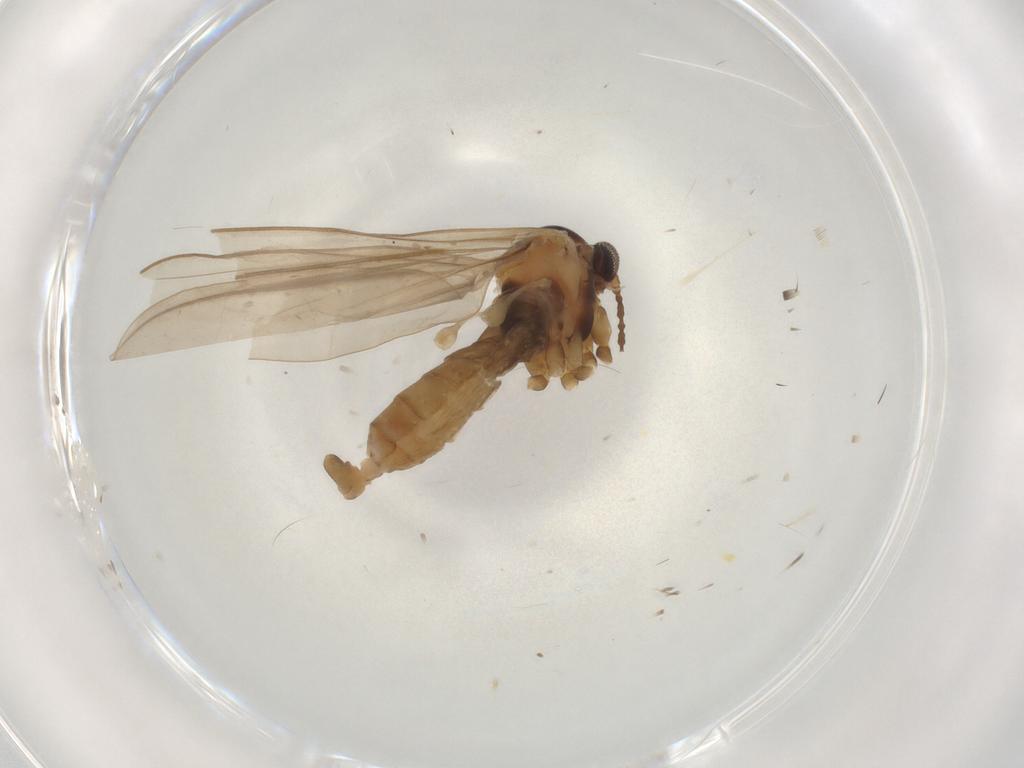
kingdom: Animalia
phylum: Arthropoda
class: Insecta
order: Diptera
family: Cecidomyiidae
